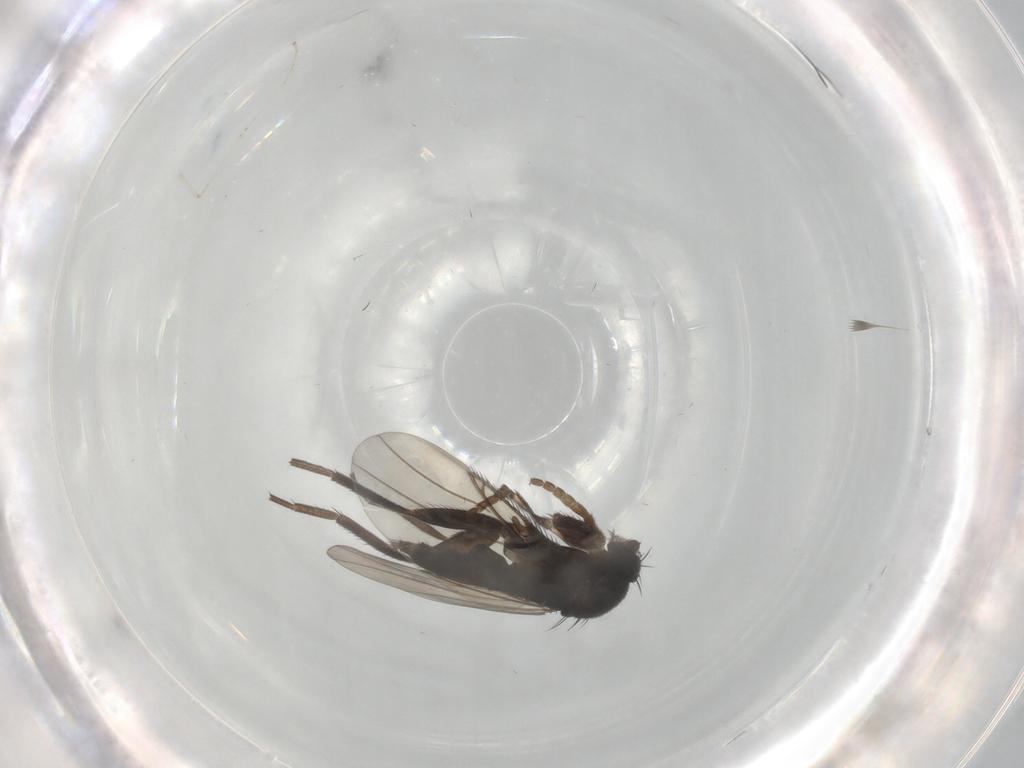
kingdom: Animalia
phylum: Arthropoda
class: Insecta
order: Diptera
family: Phoridae
